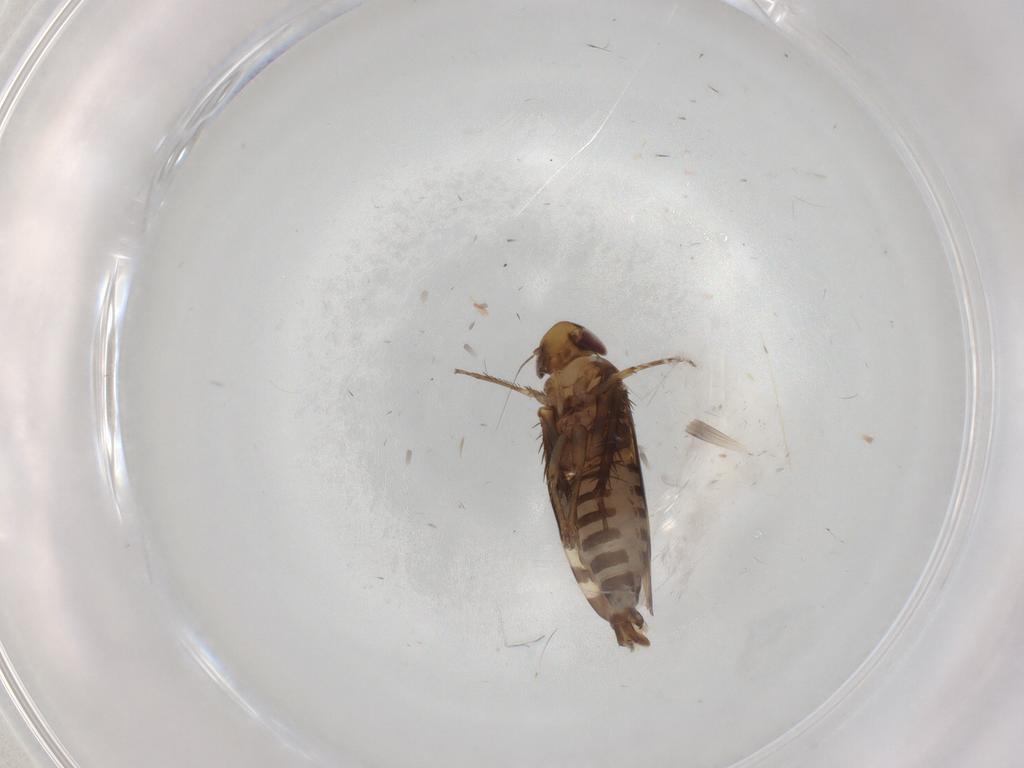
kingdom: Animalia
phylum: Arthropoda
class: Insecta
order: Hemiptera
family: Cicadellidae
